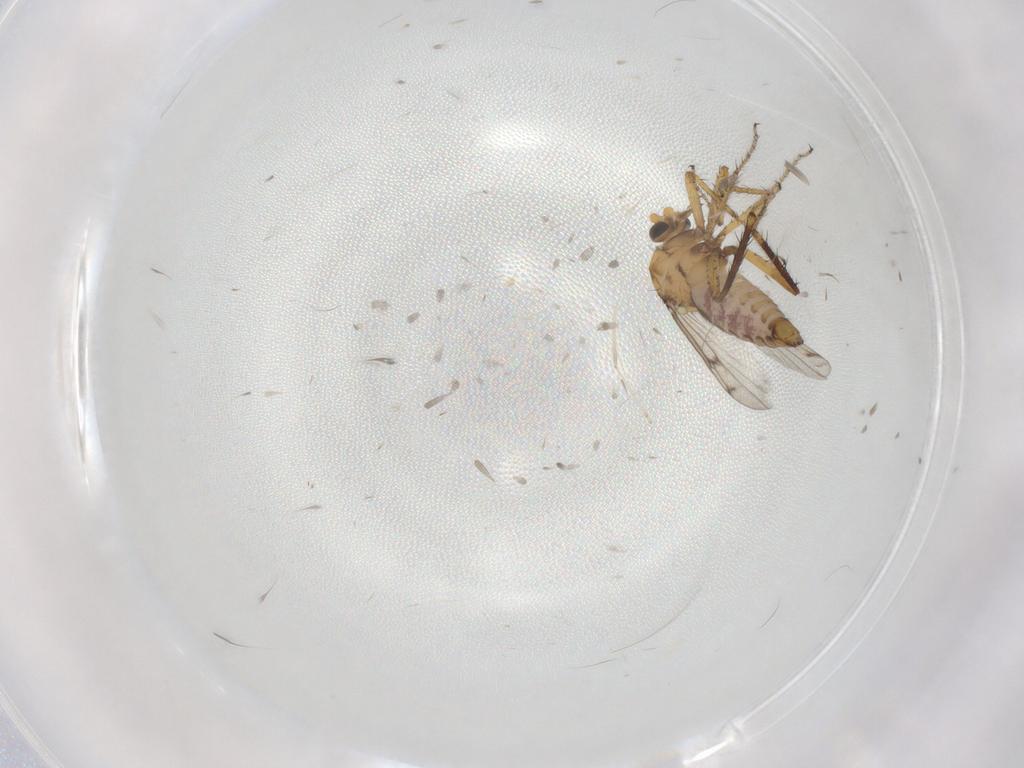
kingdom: Animalia
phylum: Arthropoda
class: Insecta
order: Diptera
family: Ceratopogonidae
